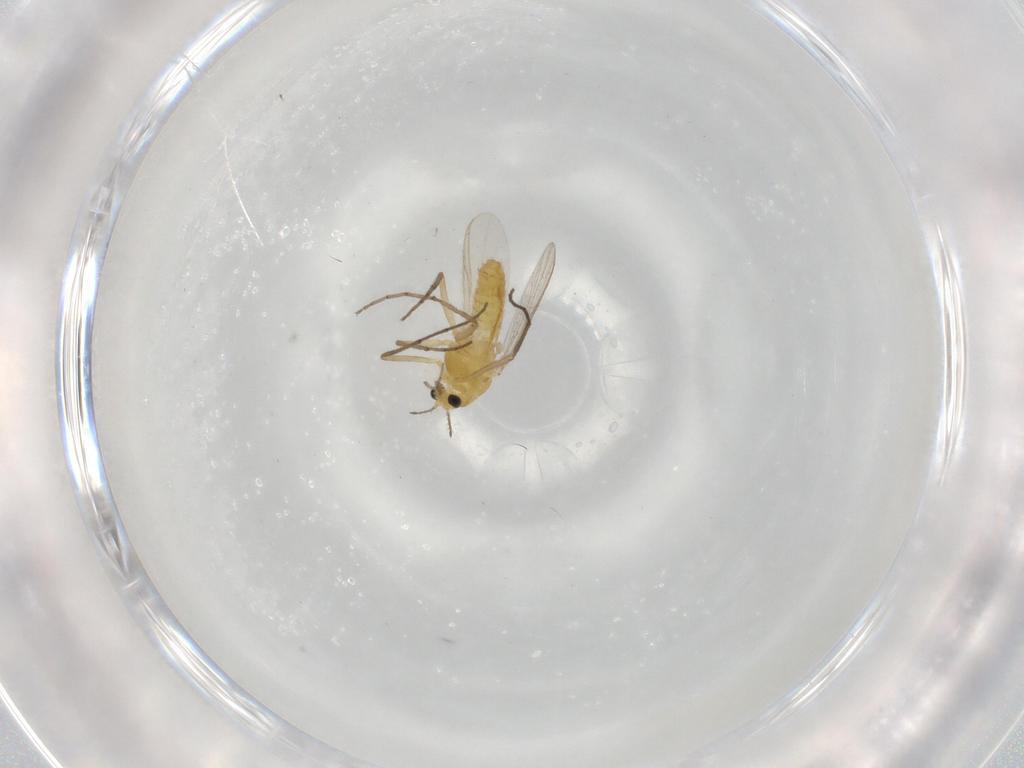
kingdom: Animalia
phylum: Arthropoda
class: Insecta
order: Diptera
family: Chironomidae
